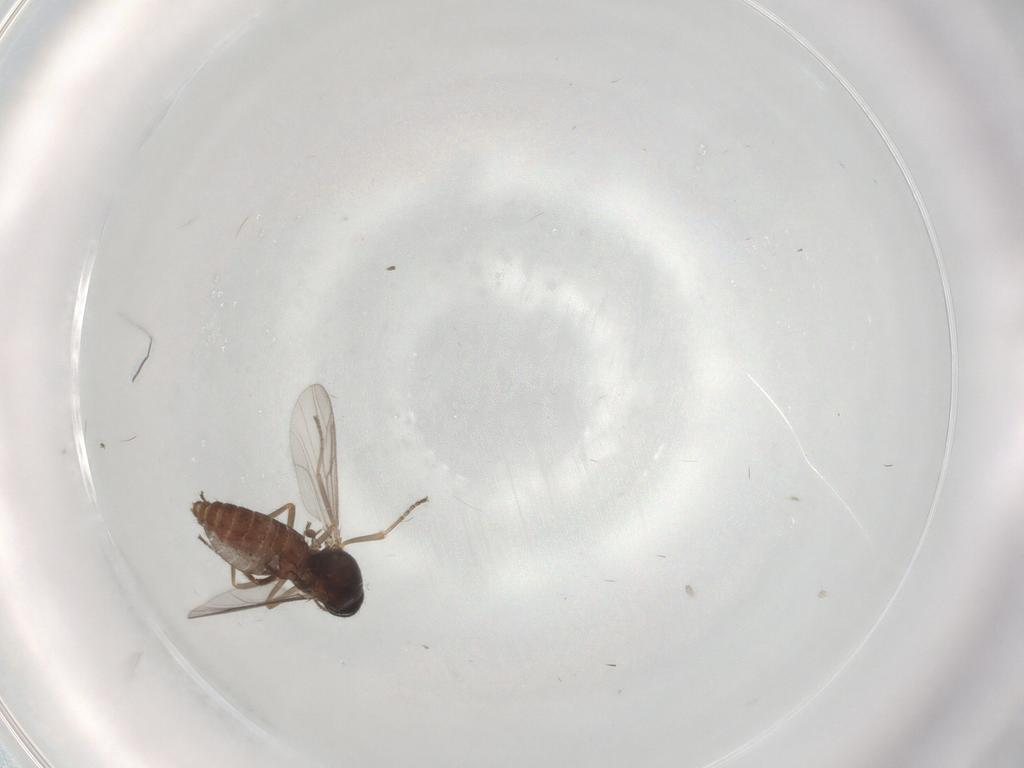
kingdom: Animalia
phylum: Arthropoda
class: Insecta
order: Diptera
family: Ceratopogonidae
